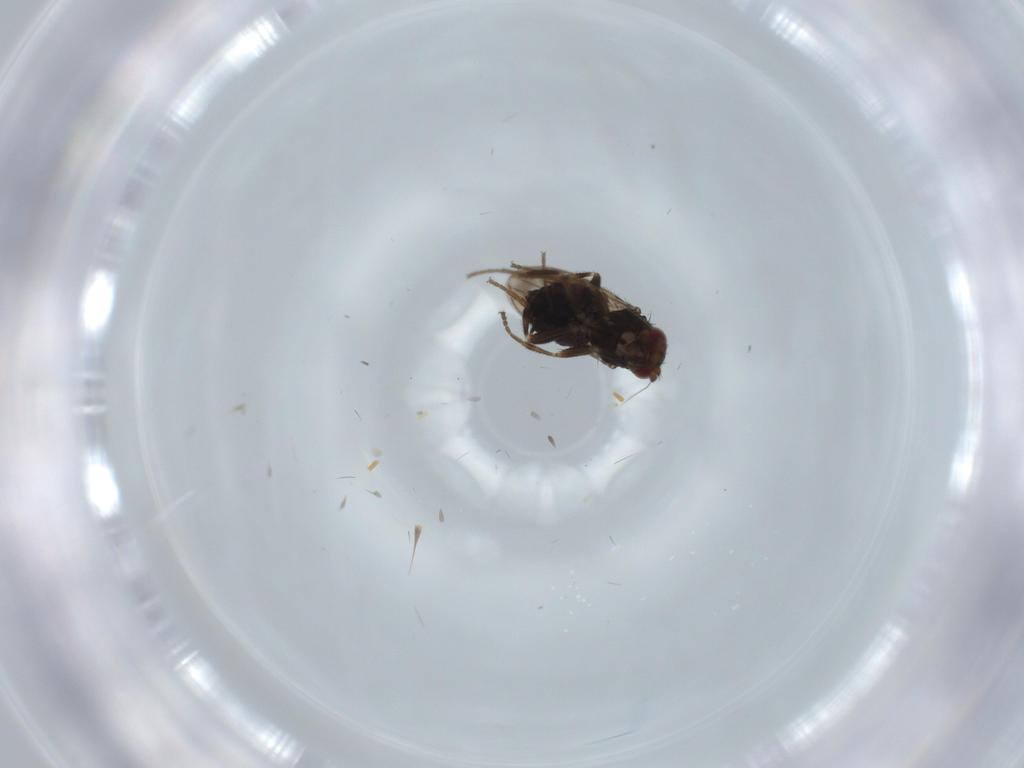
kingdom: Animalia
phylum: Arthropoda
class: Insecta
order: Diptera
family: Sphaeroceridae
